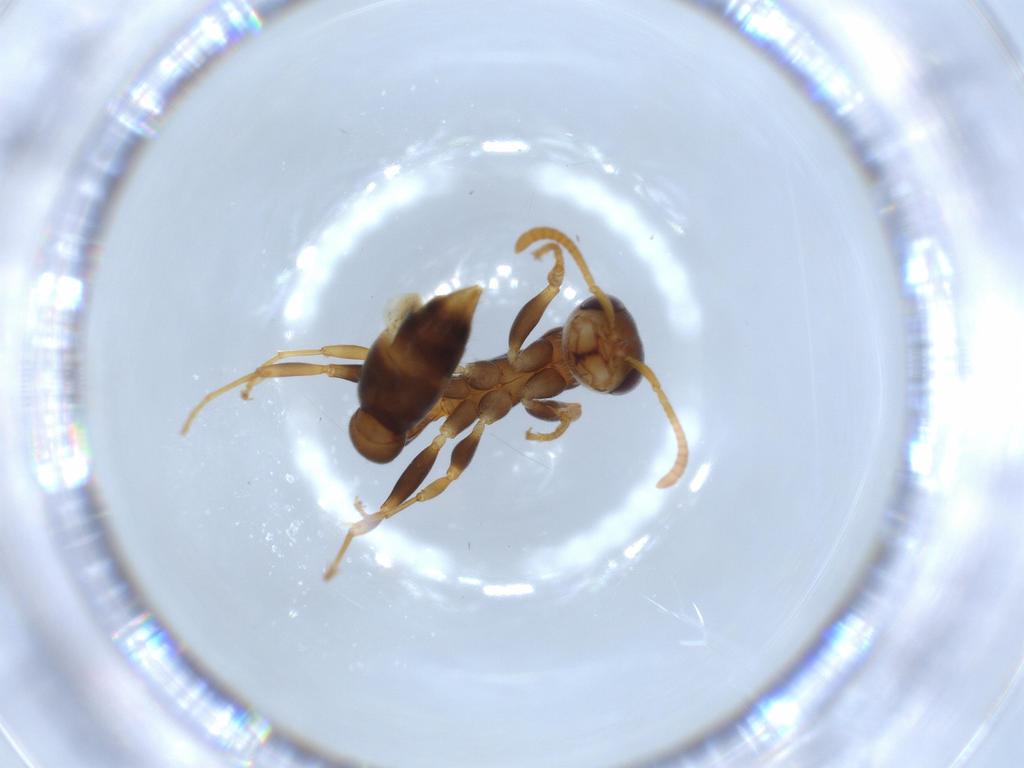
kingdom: Animalia
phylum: Arthropoda
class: Insecta
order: Hymenoptera
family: Formicidae
